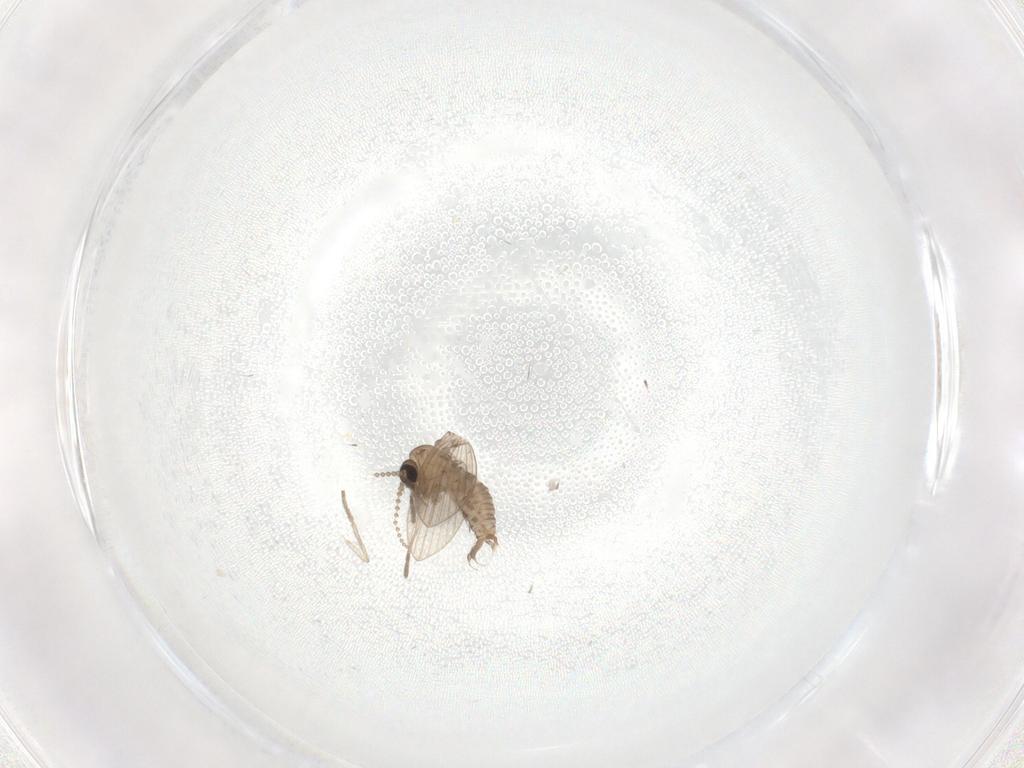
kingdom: Animalia
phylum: Arthropoda
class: Insecta
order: Diptera
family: Psychodidae
